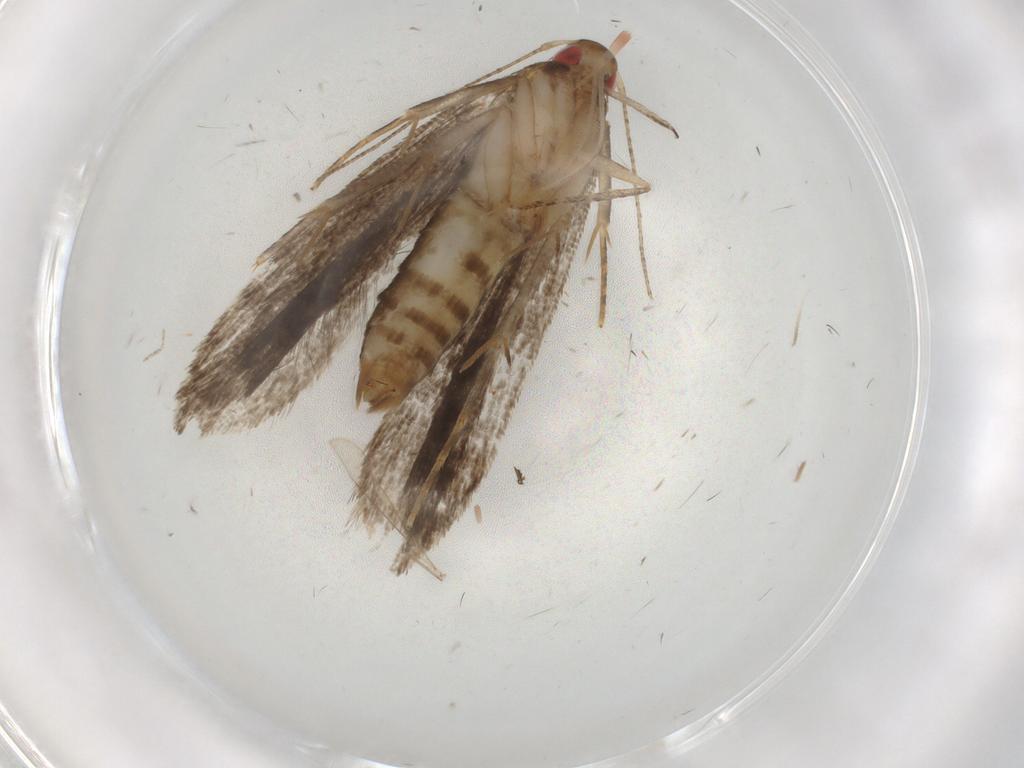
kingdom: Animalia
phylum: Arthropoda
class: Insecta
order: Lepidoptera
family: Gelechiidae
